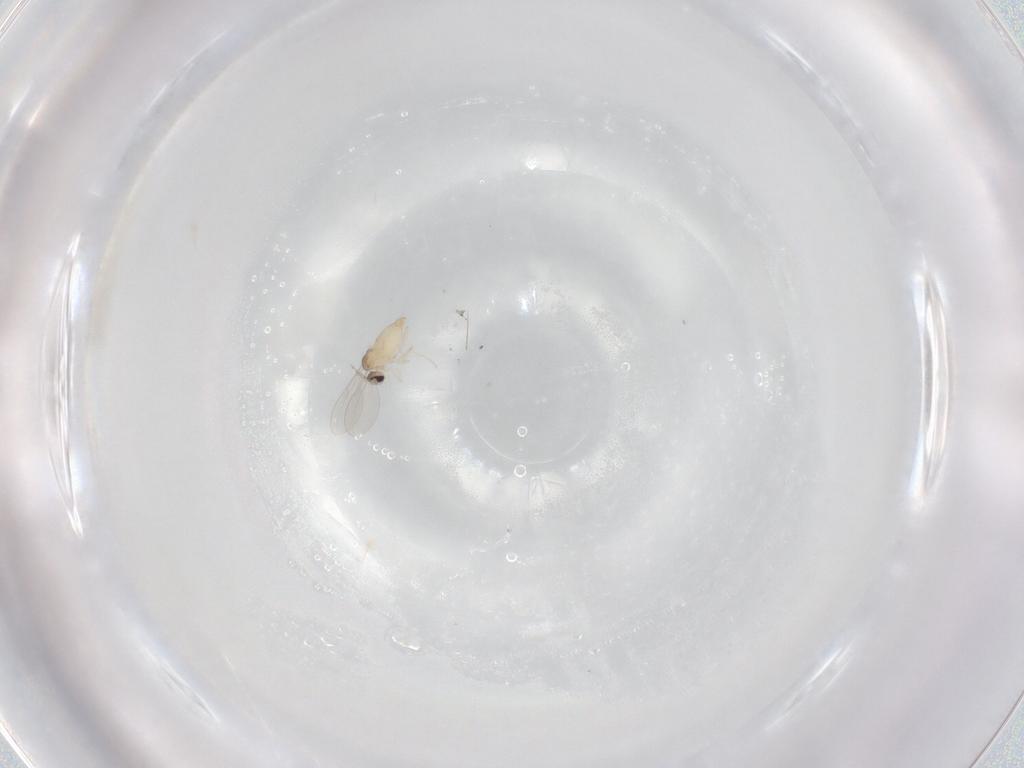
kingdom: Animalia
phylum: Arthropoda
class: Insecta
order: Diptera
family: Cecidomyiidae
